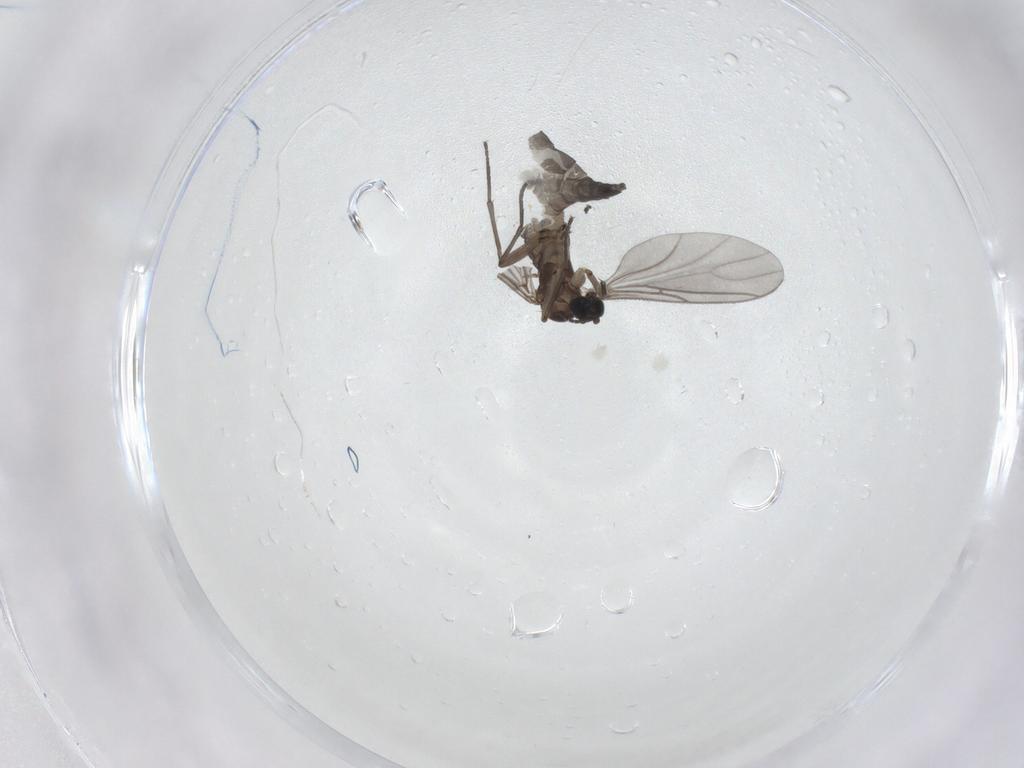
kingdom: Animalia
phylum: Arthropoda
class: Insecta
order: Diptera
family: Sciaridae
